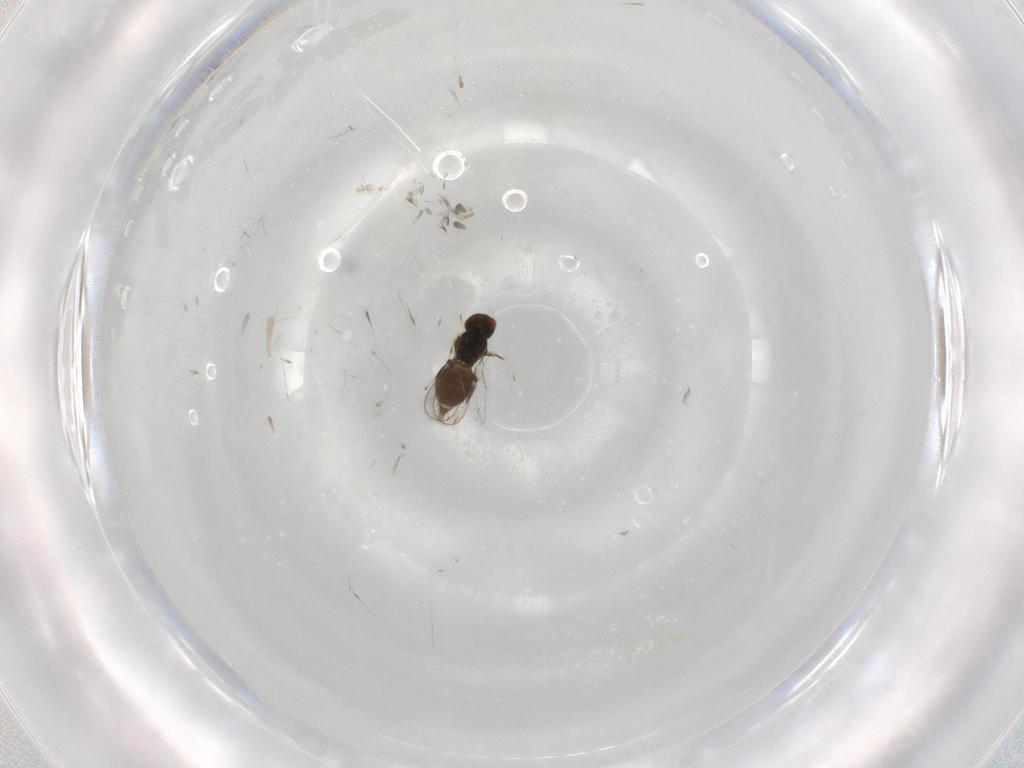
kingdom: Animalia
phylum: Arthropoda
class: Insecta
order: Hymenoptera
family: Eulophidae
